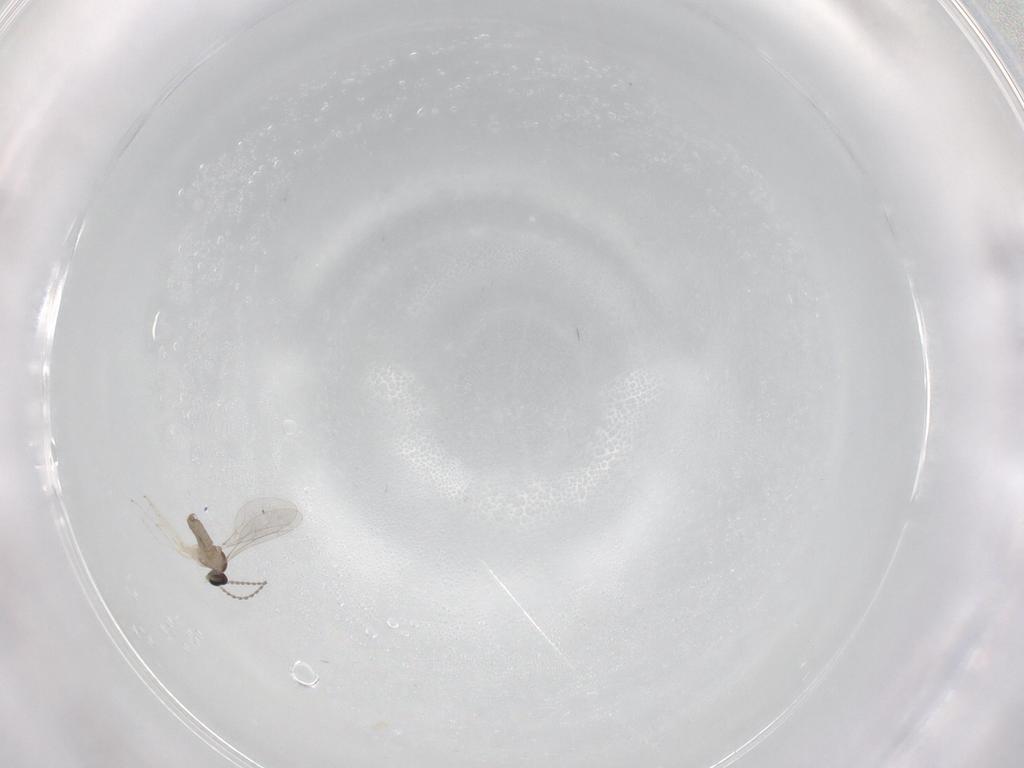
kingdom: Animalia
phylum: Arthropoda
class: Insecta
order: Diptera
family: Cecidomyiidae
